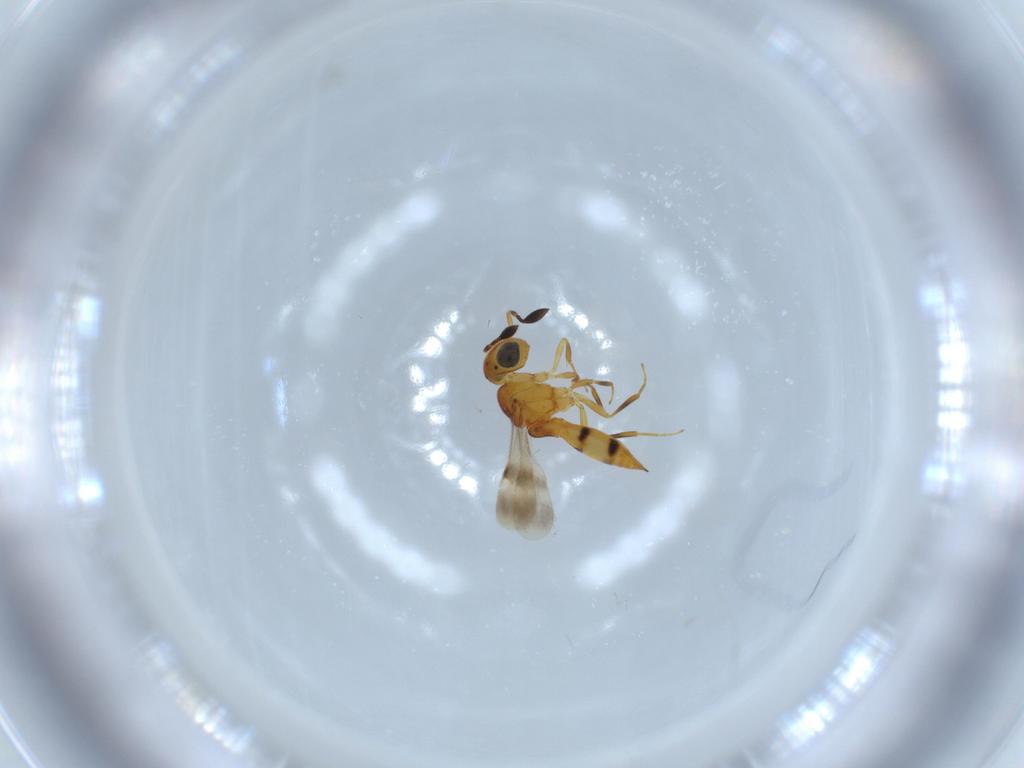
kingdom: Animalia
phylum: Arthropoda
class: Insecta
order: Hymenoptera
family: Scelionidae
